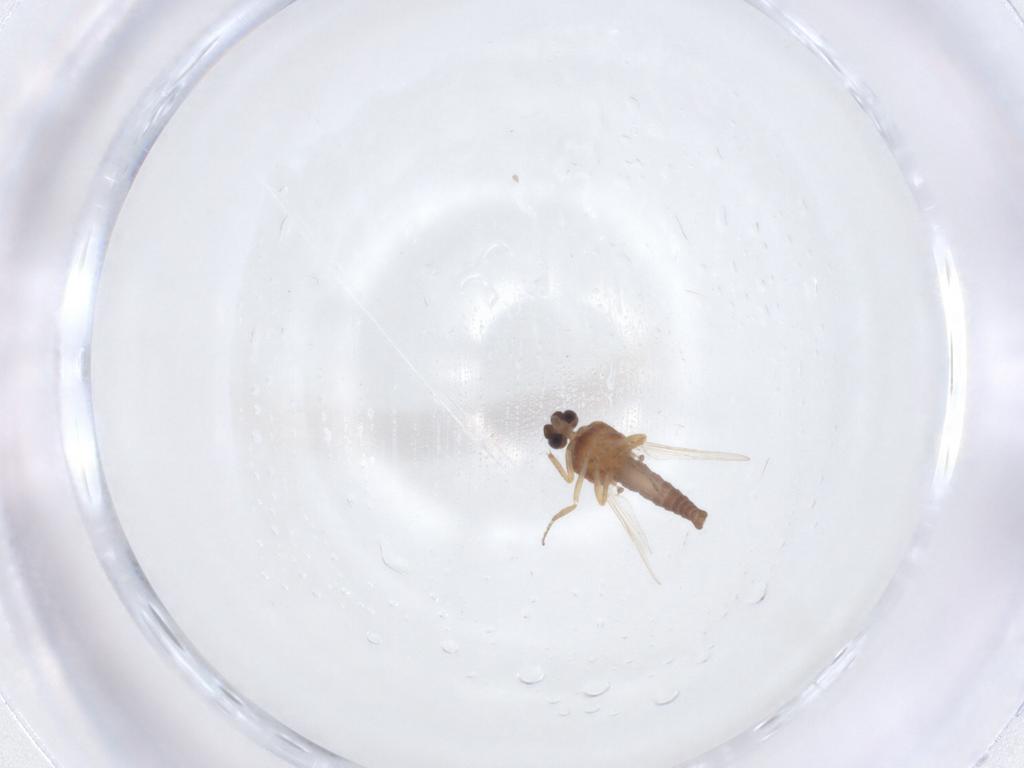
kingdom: Animalia
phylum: Arthropoda
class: Insecta
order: Diptera
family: Ceratopogonidae
